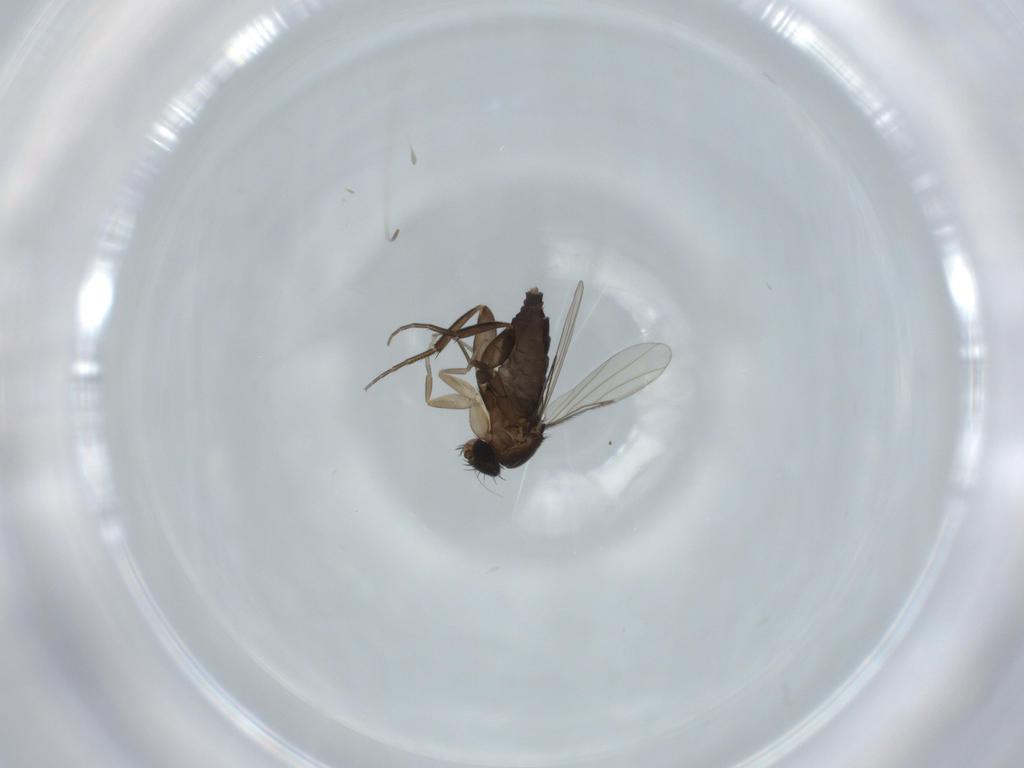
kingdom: Animalia
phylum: Arthropoda
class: Insecta
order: Diptera
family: Phoridae
